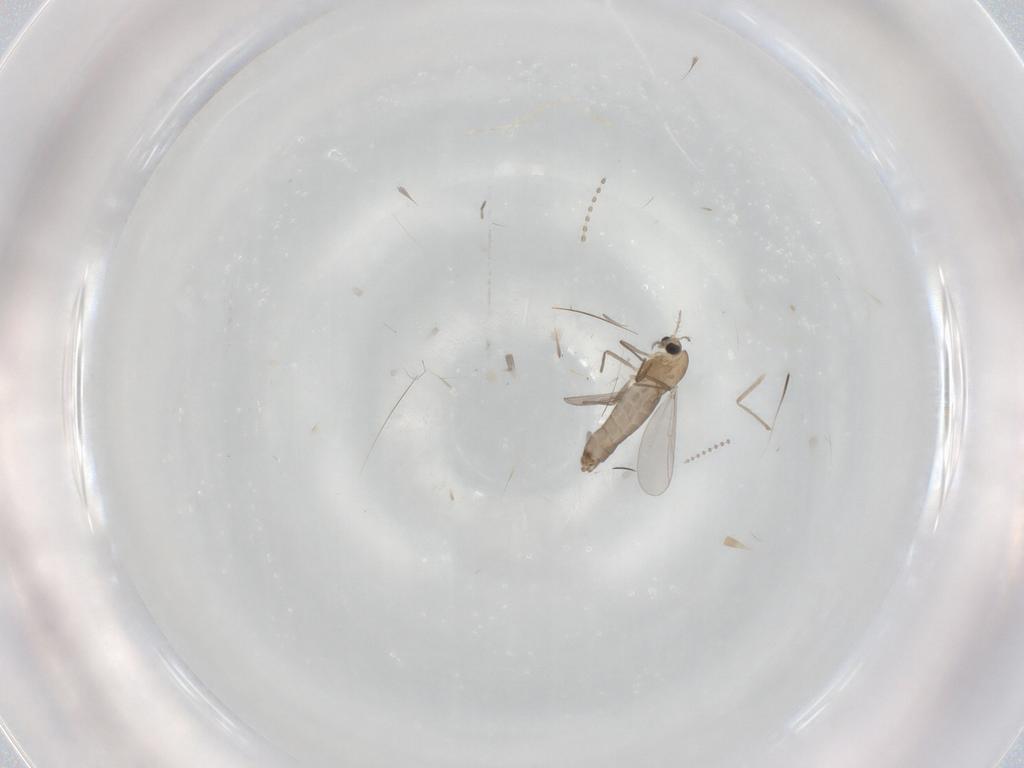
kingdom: Animalia
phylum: Arthropoda
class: Insecta
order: Diptera
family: Chironomidae
